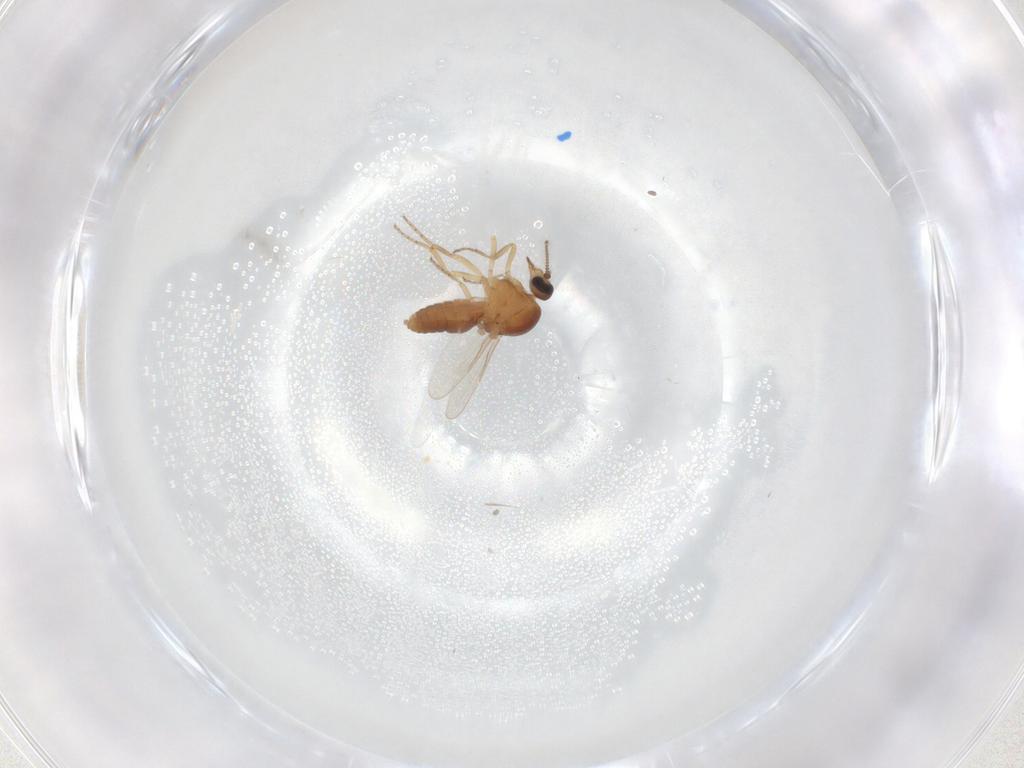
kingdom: Animalia
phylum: Arthropoda
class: Insecta
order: Diptera
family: Ceratopogonidae
